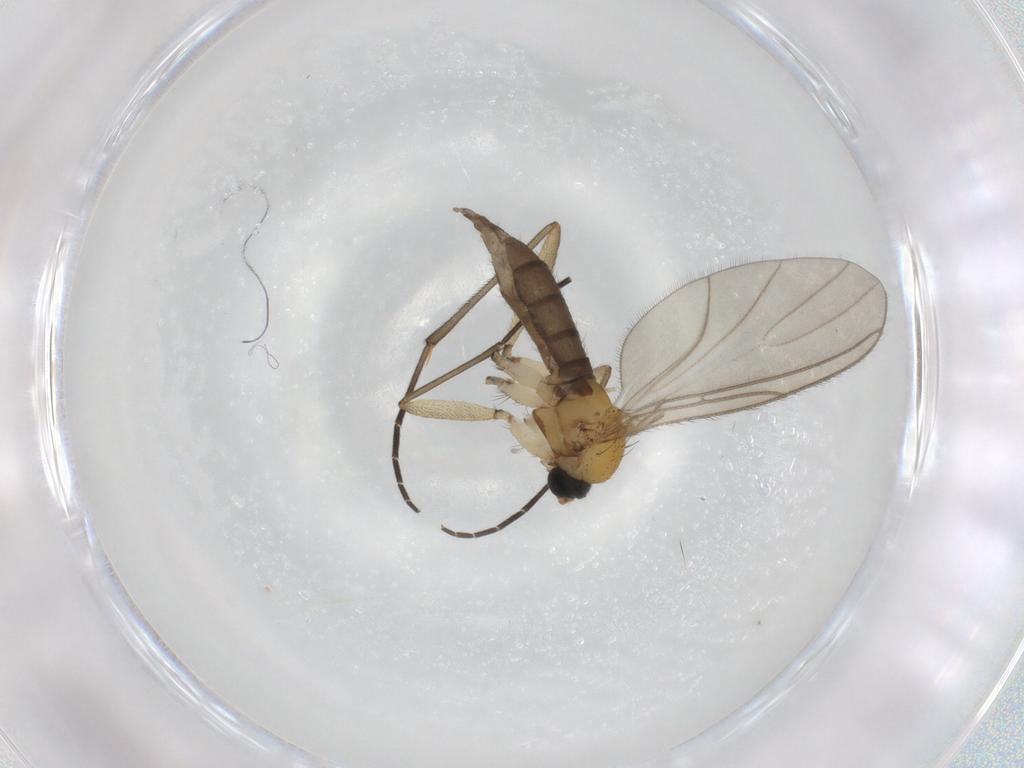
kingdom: Animalia
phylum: Arthropoda
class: Insecta
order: Diptera
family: Sciaridae
